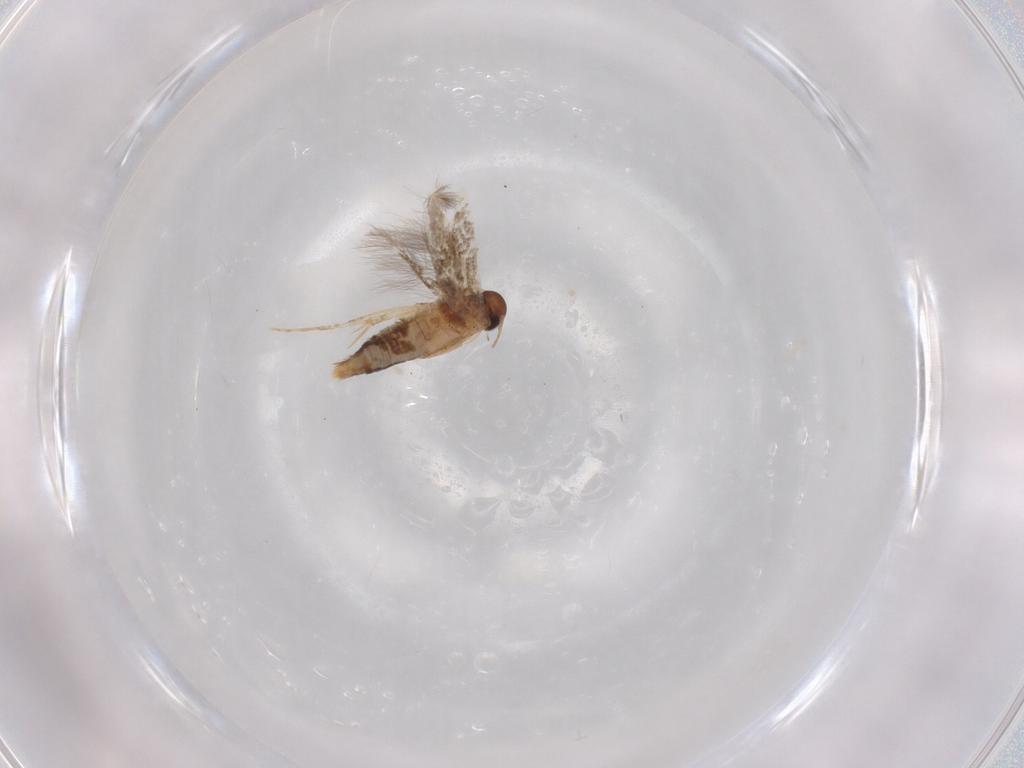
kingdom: Animalia
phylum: Arthropoda
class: Insecta
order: Lepidoptera
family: Gelechiidae
